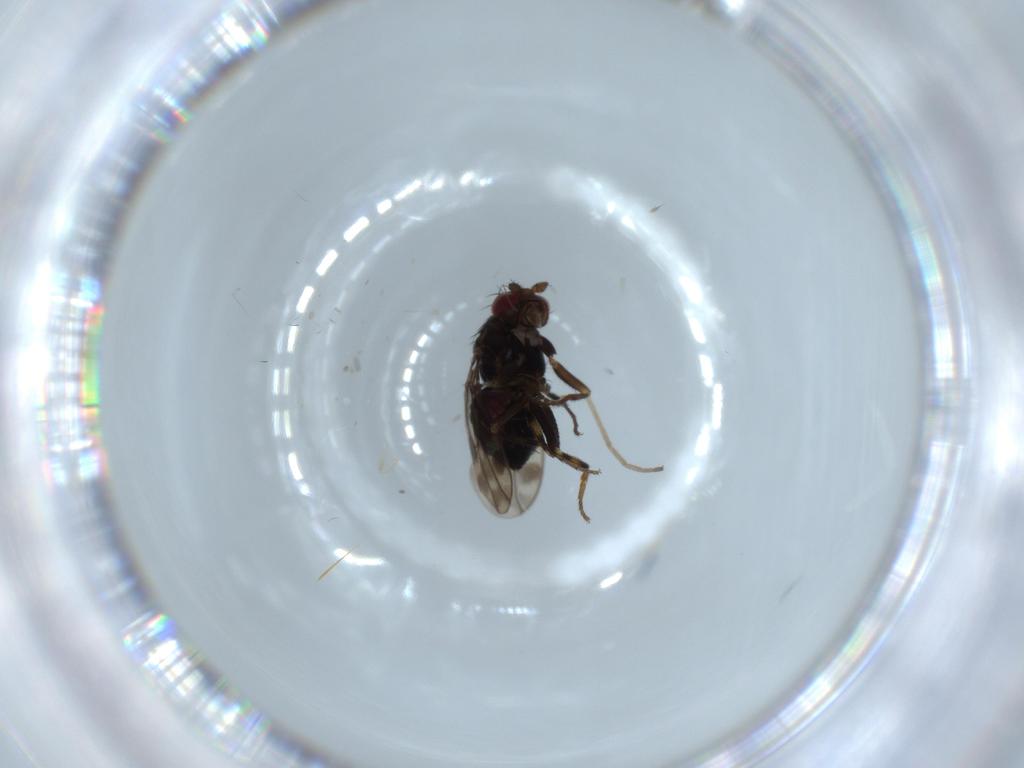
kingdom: Animalia
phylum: Arthropoda
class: Insecta
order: Diptera
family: Sphaeroceridae
